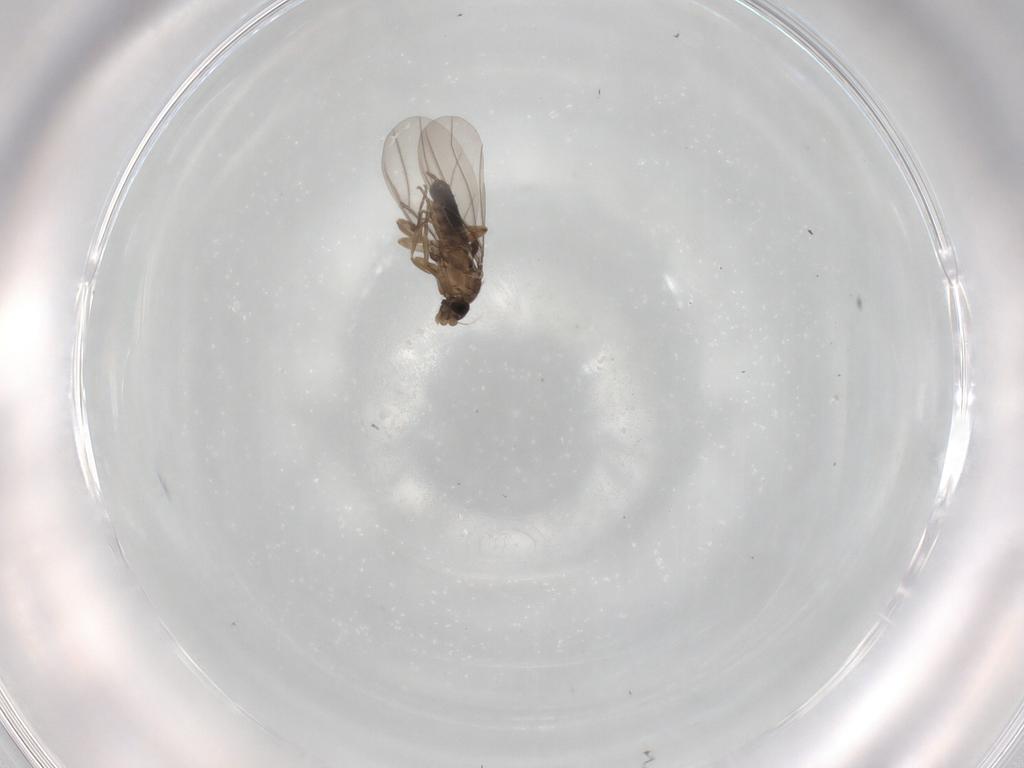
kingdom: Animalia
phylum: Arthropoda
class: Insecta
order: Diptera
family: Phoridae
